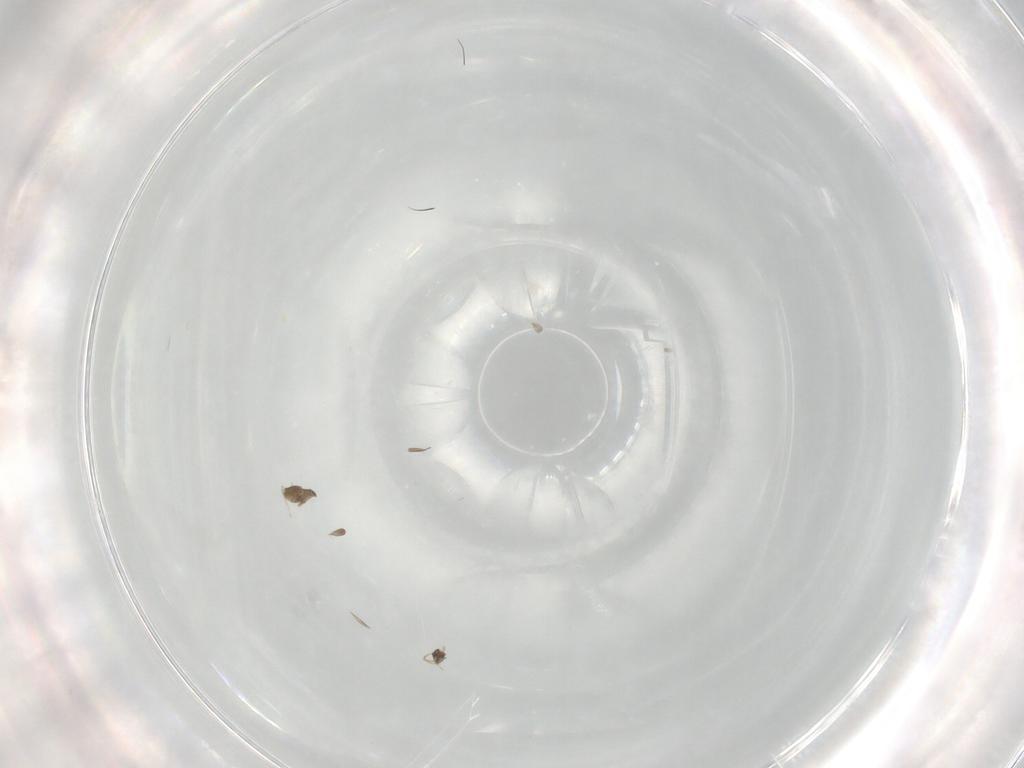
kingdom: Animalia
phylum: Arthropoda
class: Insecta
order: Hymenoptera
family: Mymaridae
